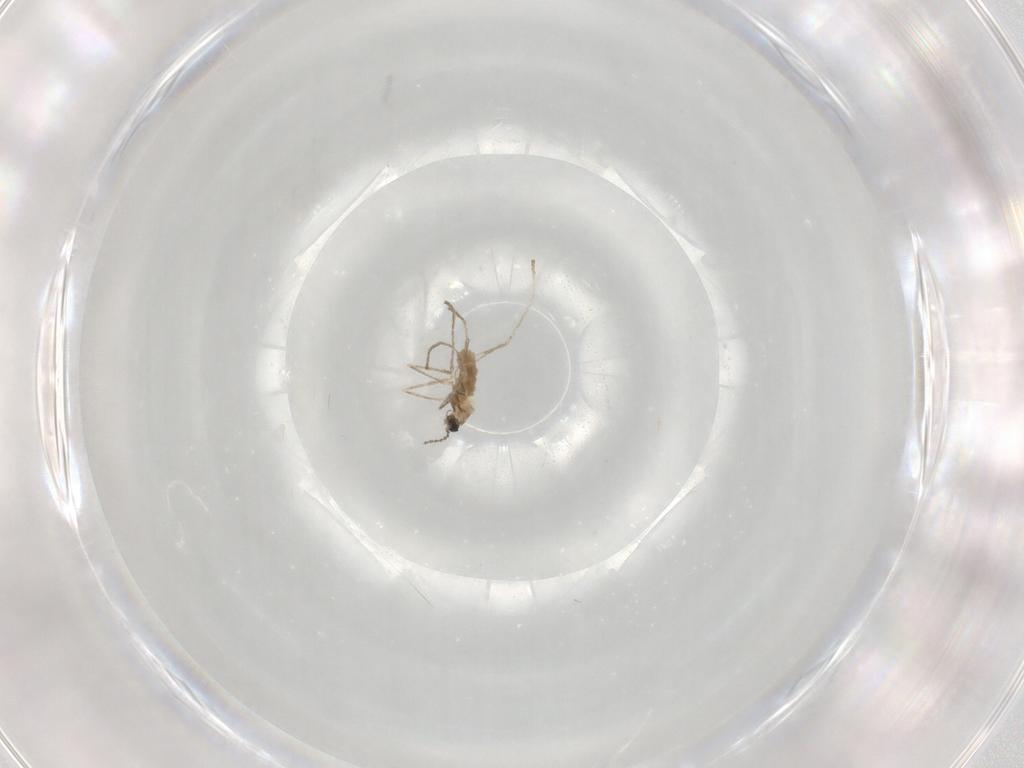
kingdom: Animalia
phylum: Arthropoda
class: Insecta
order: Diptera
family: Cecidomyiidae
